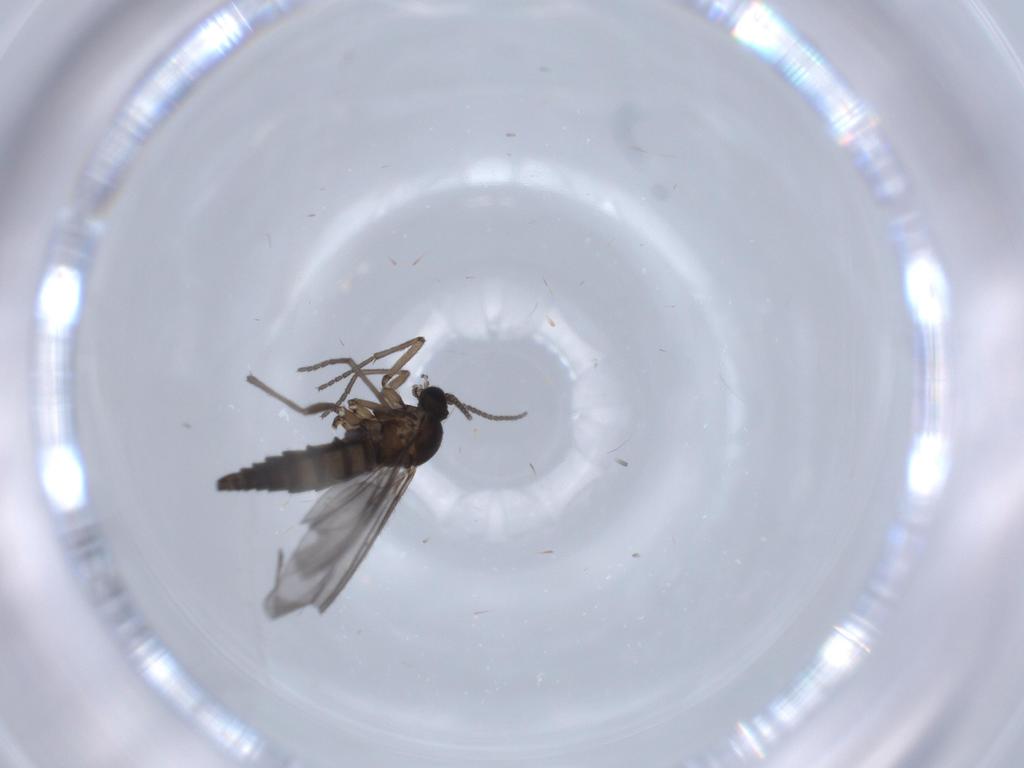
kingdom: Animalia
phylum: Arthropoda
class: Insecta
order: Diptera
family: Sciaridae
